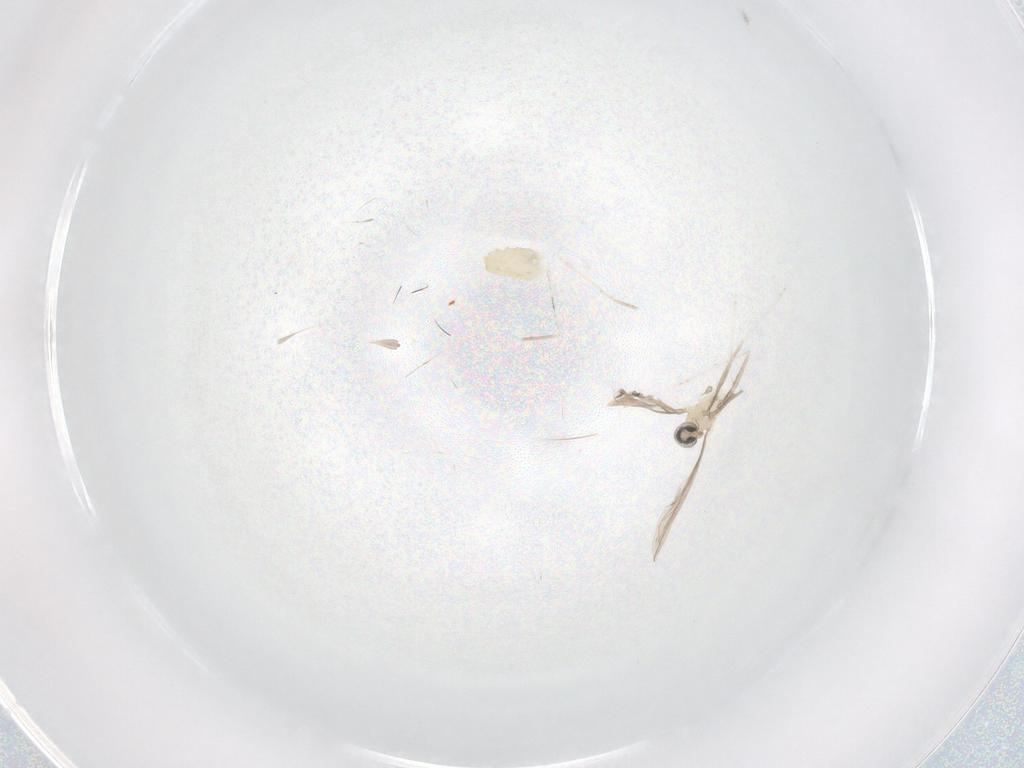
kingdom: Animalia
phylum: Arthropoda
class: Insecta
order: Diptera
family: Cecidomyiidae
